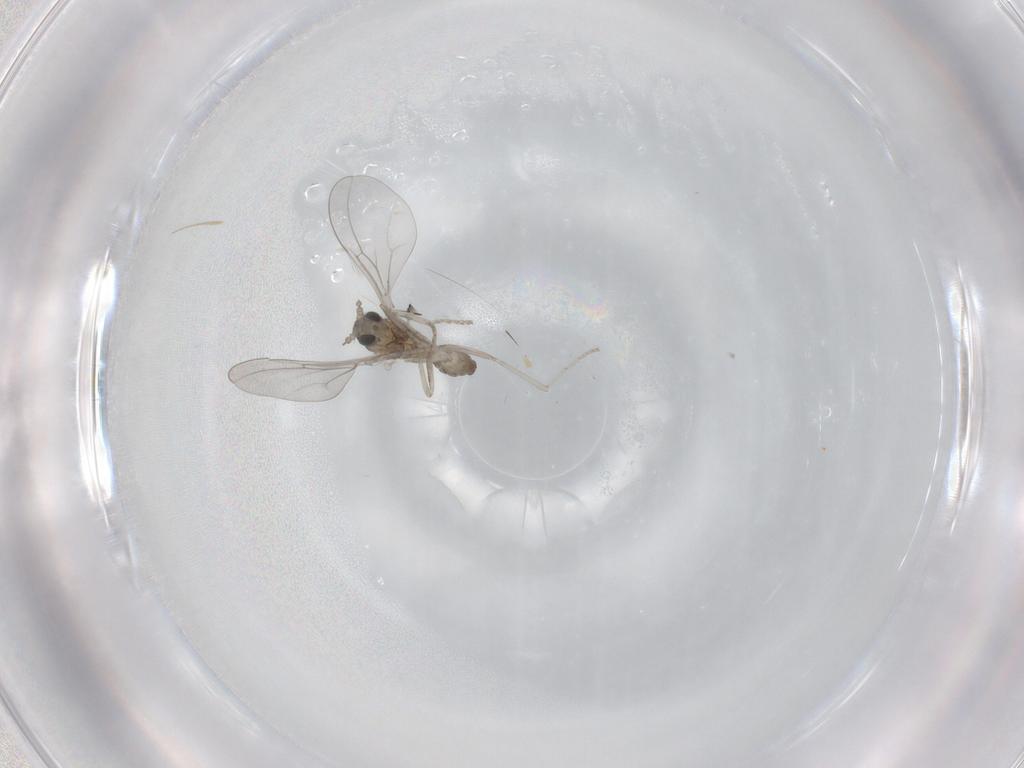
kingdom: Animalia
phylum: Arthropoda
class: Insecta
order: Diptera
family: Cecidomyiidae
